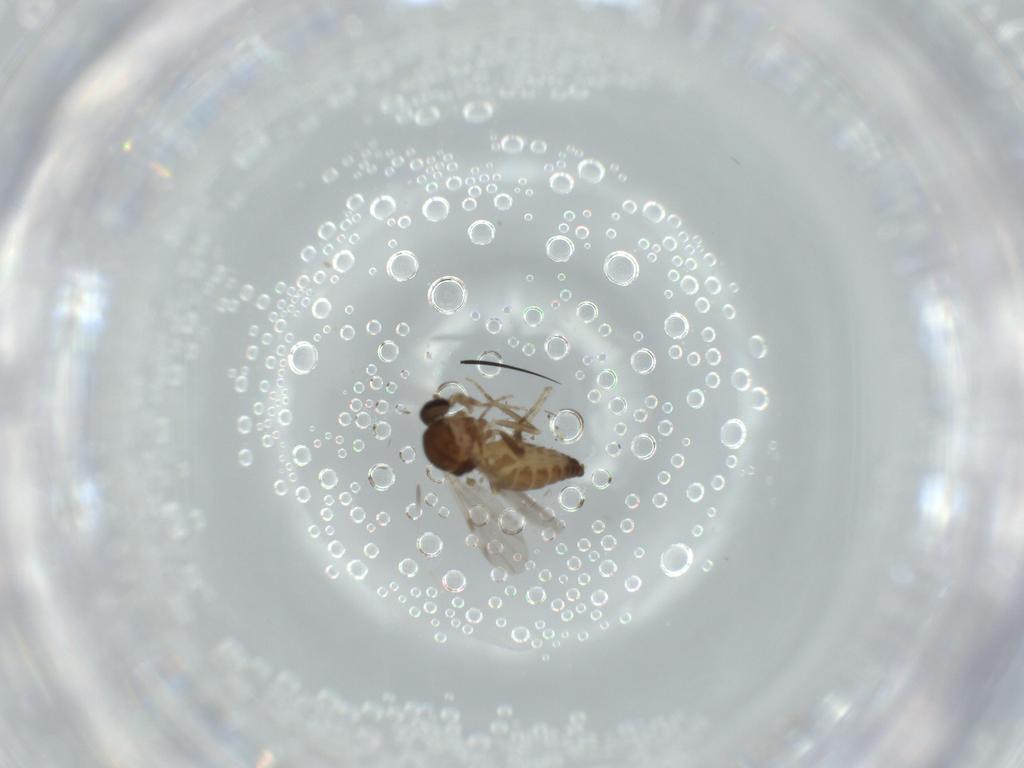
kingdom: Animalia
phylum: Arthropoda
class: Insecta
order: Diptera
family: Ceratopogonidae
